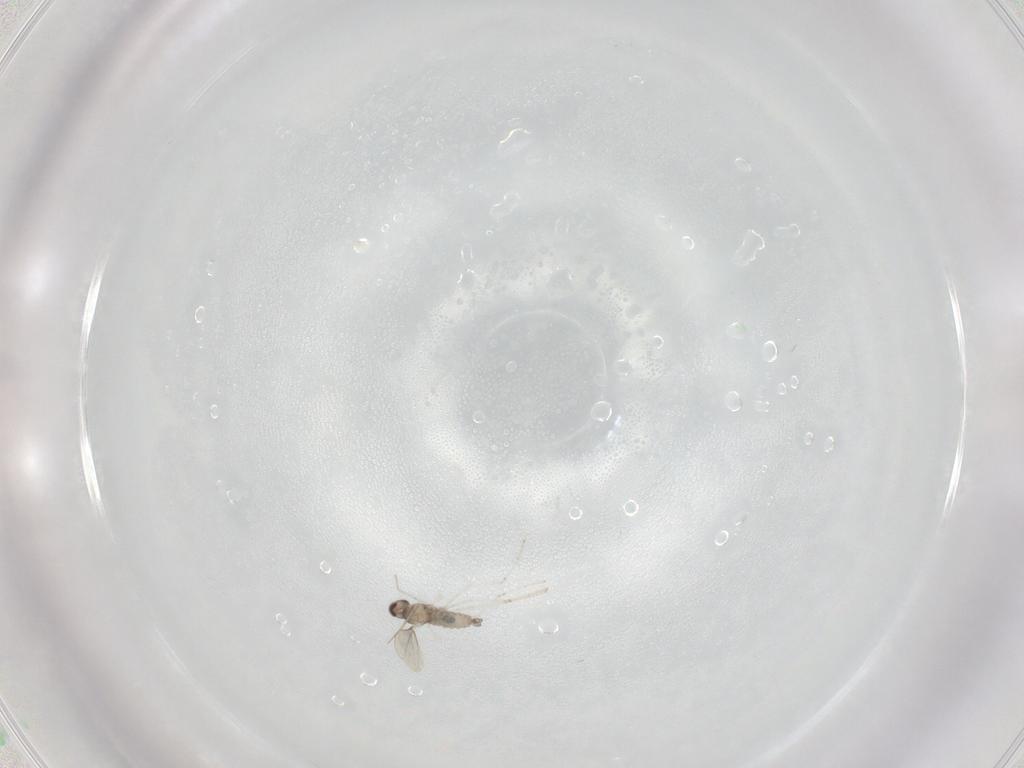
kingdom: Animalia
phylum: Arthropoda
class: Insecta
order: Diptera
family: Cecidomyiidae
